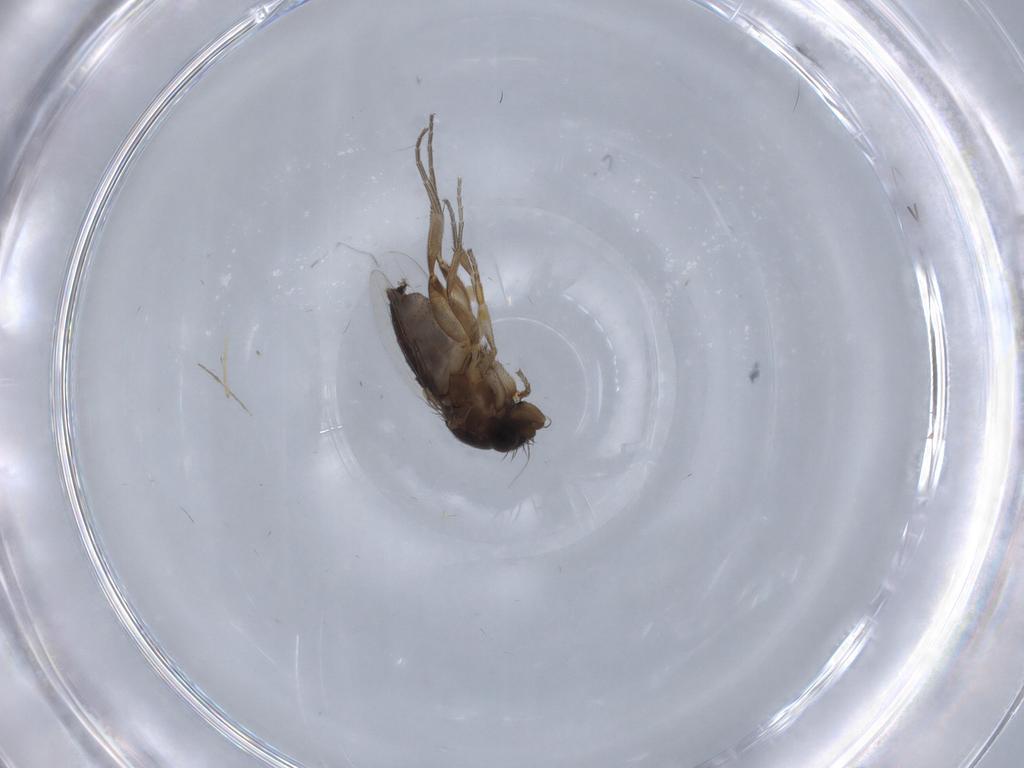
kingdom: Animalia
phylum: Arthropoda
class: Insecta
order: Diptera
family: Phoridae
